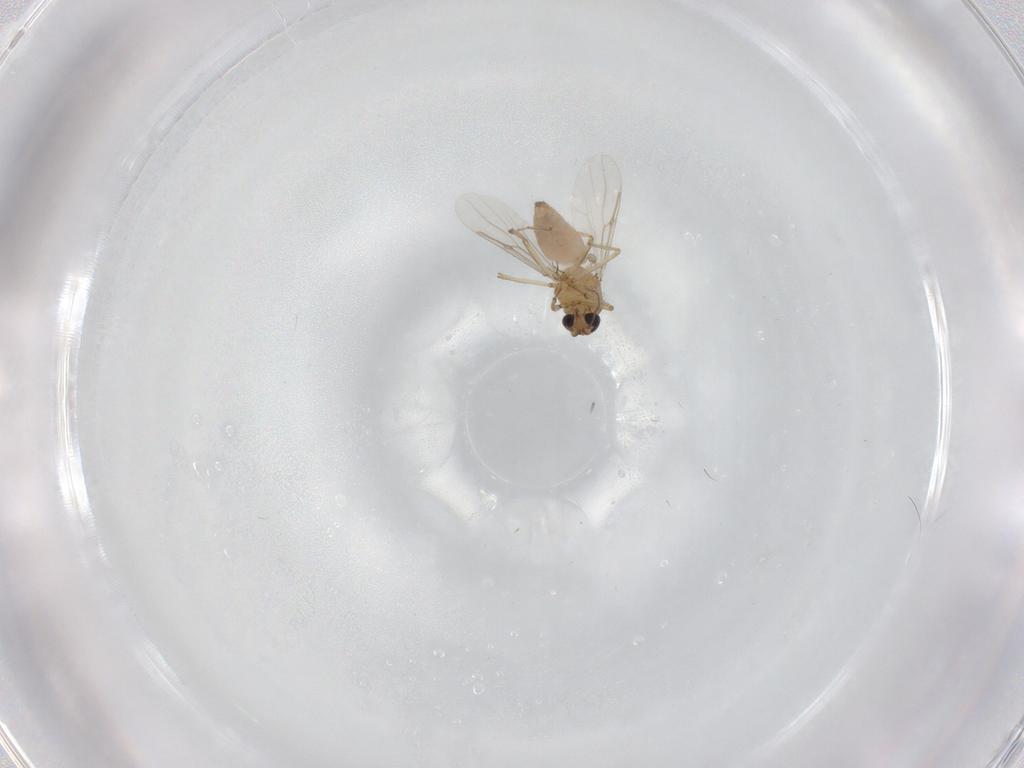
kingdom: Animalia
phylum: Arthropoda
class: Insecta
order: Diptera
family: Ceratopogonidae
